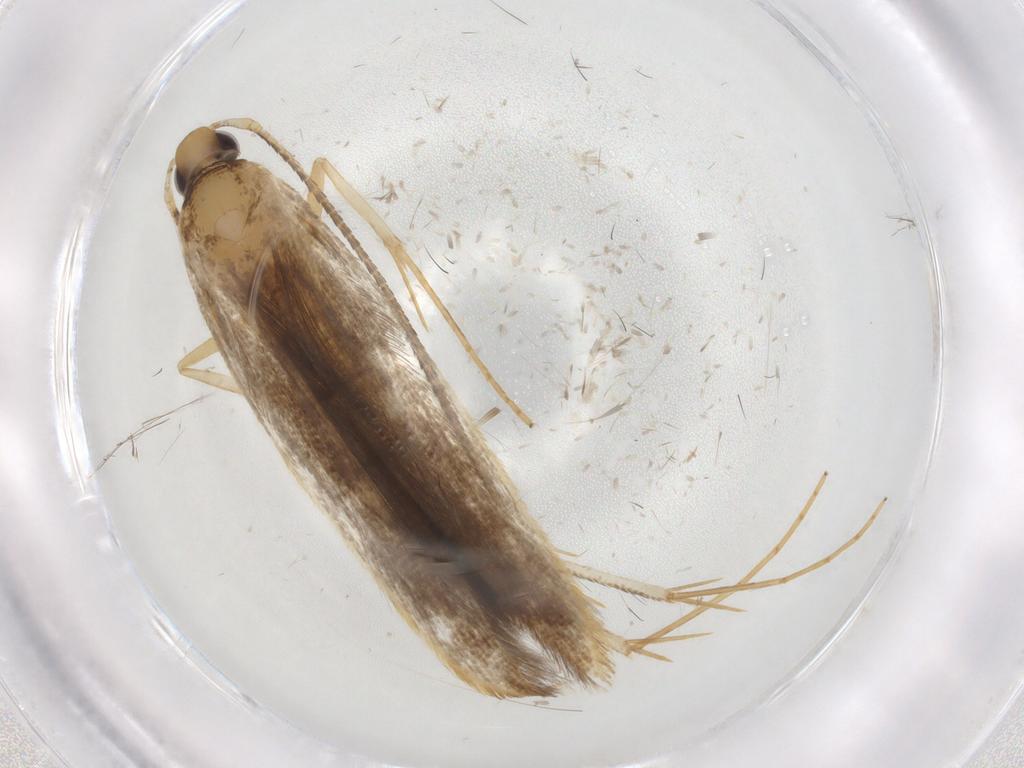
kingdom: Animalia
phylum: Arthropoda
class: Insecta
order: Lepidoptera
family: Pterolonchidae
